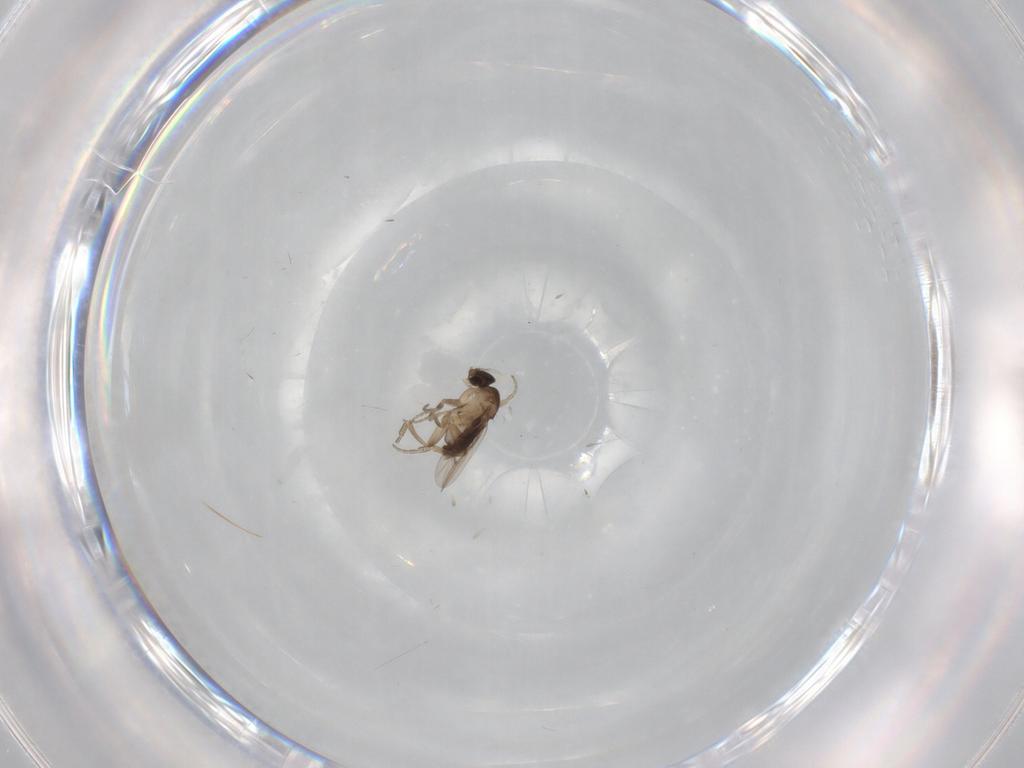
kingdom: Animalia
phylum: Arthropoda
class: Insecta
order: Diptera
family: Phoridae
